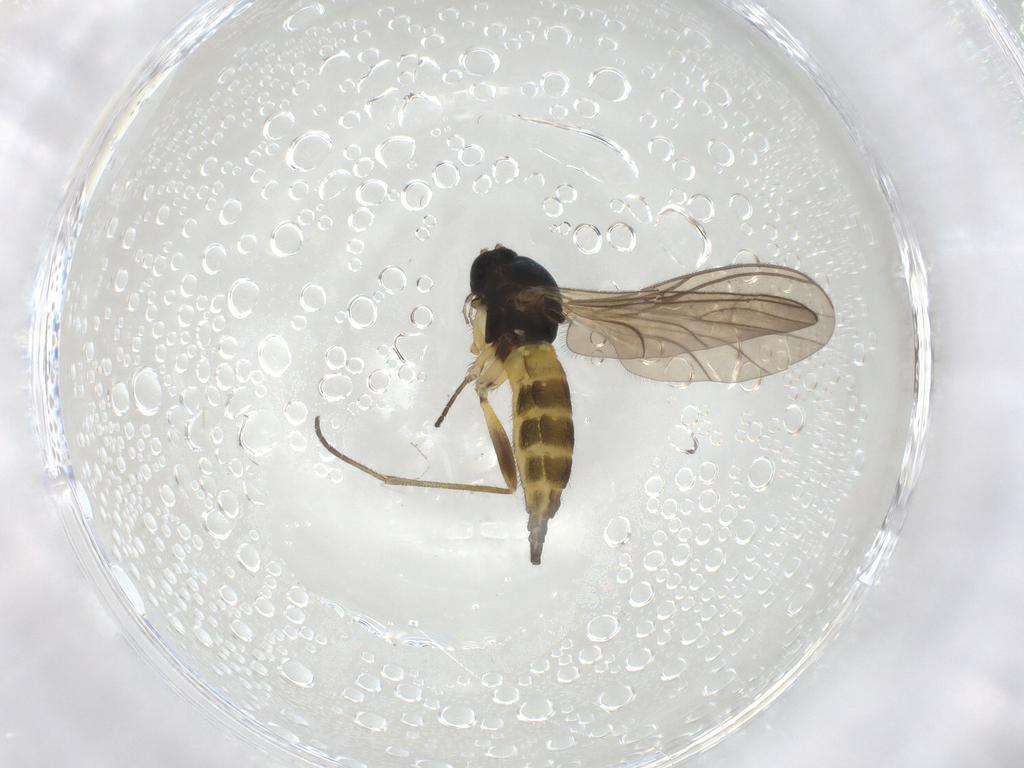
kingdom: Animalia
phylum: Arthropoda
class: Insecta
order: Diptera
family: Sciaridae
